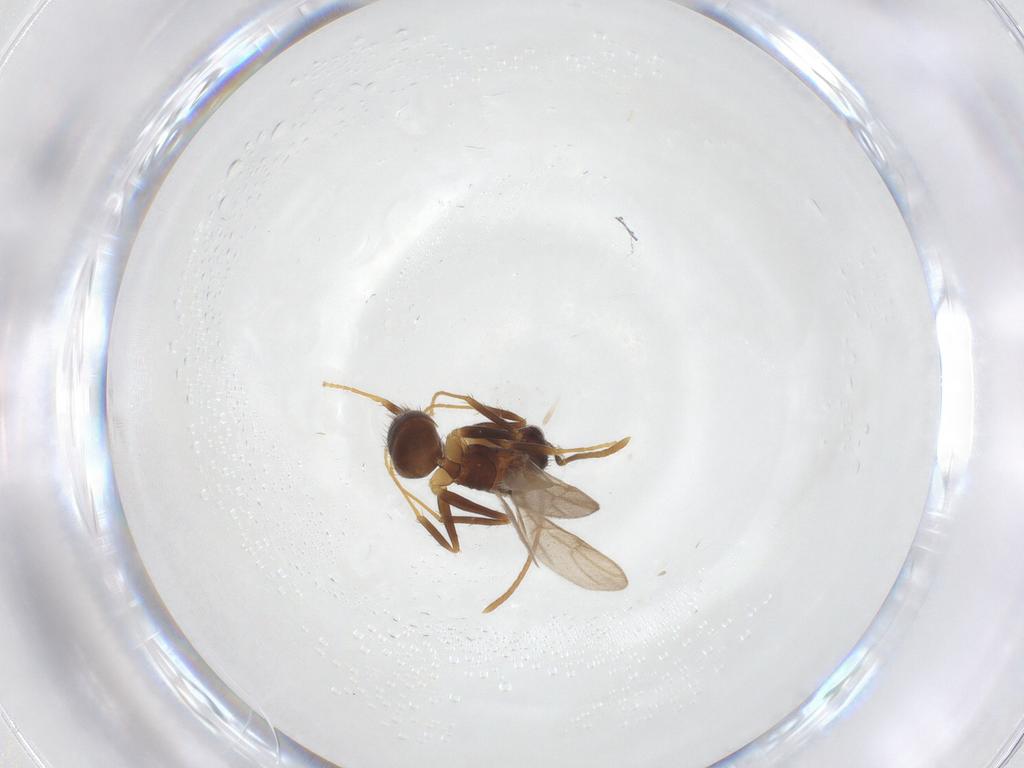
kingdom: Animalia
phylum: Arthropoda
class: Insecta
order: Hymenoptera
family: Formicidae
